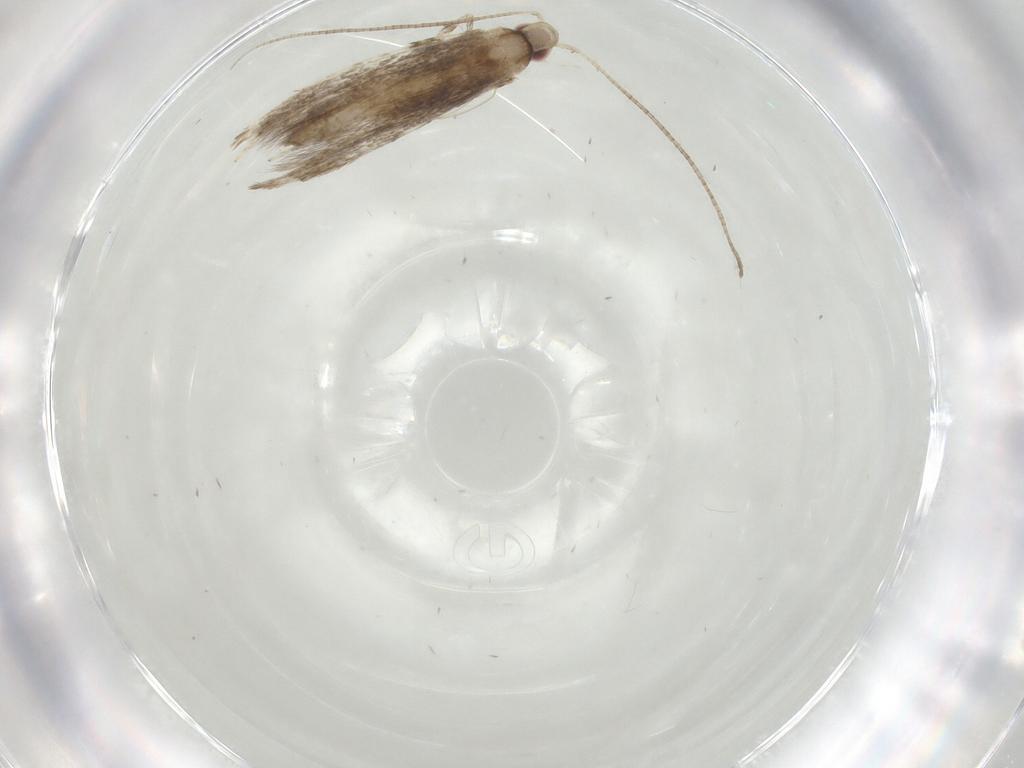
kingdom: Animalia
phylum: Arthropoda
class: Insecta
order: Lepidoptera
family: Gracillariidae
